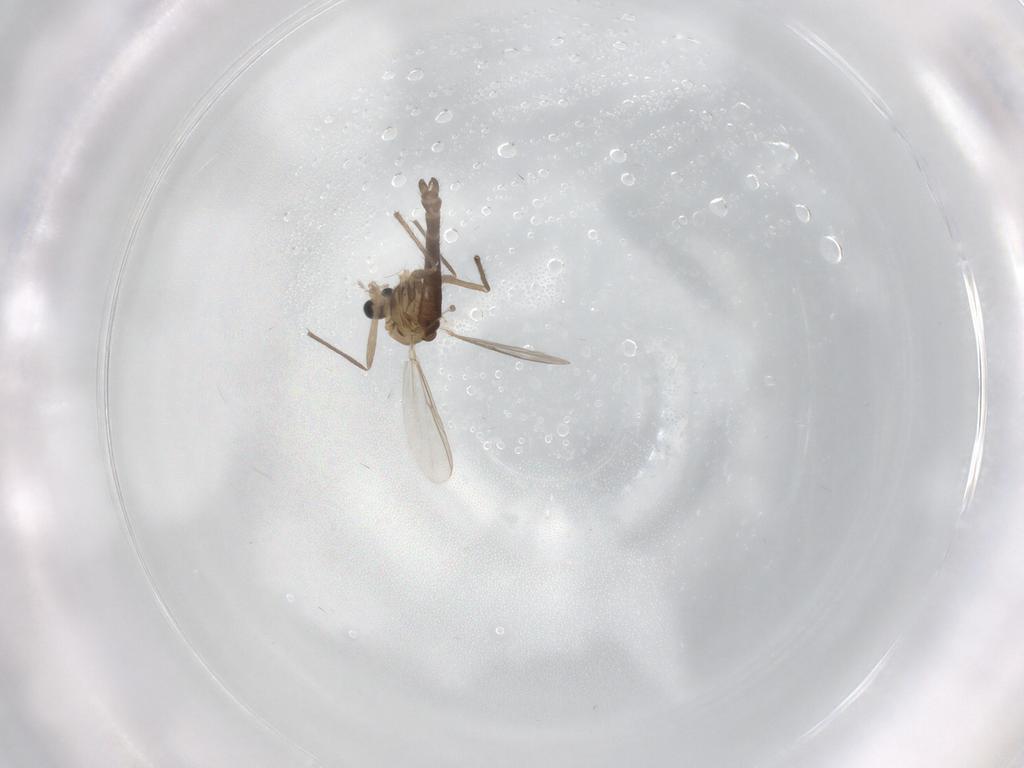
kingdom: Animalia
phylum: Arthropoda
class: Insecta
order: Diptera
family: Chironomidae
